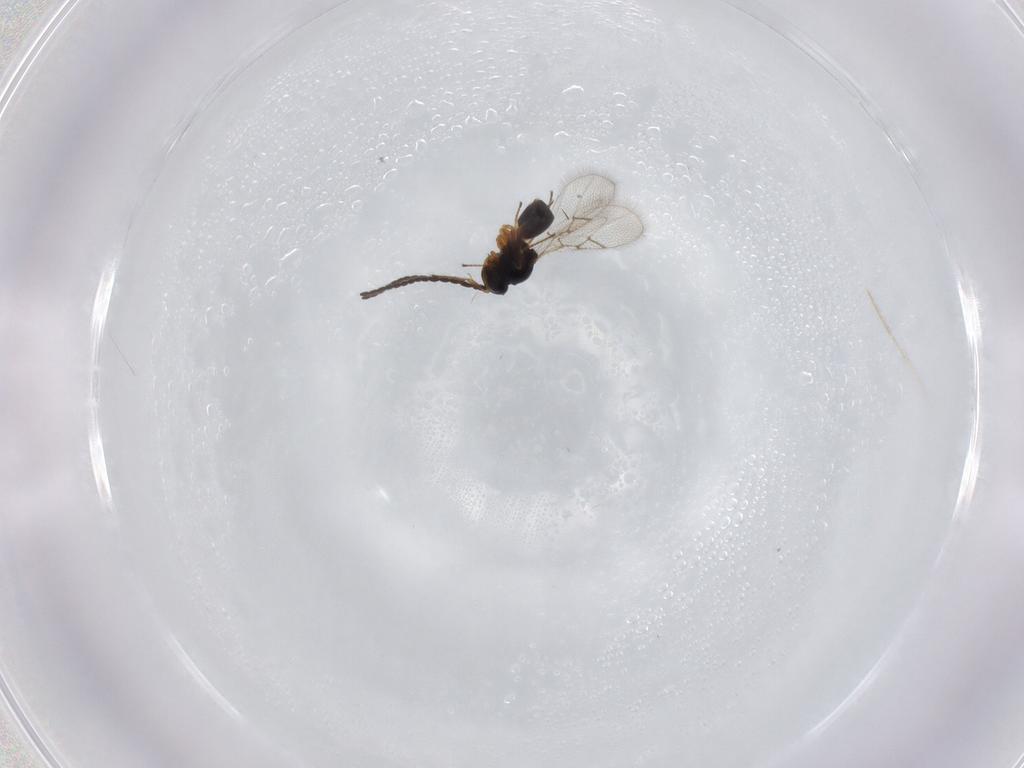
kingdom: Animalia
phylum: Arthropoda
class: Insecta
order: Hymenoptera
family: Figitidae
